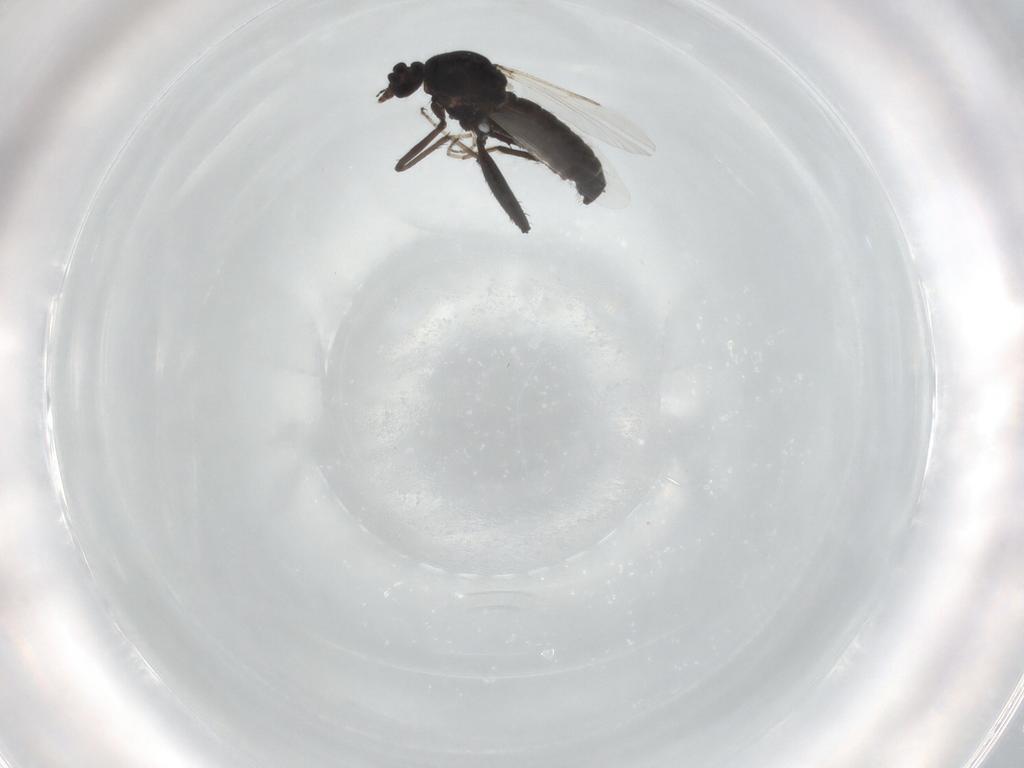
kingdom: Animalia
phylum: Arthropoda
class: Insecta
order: Diptera
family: Ceratopogonidae
